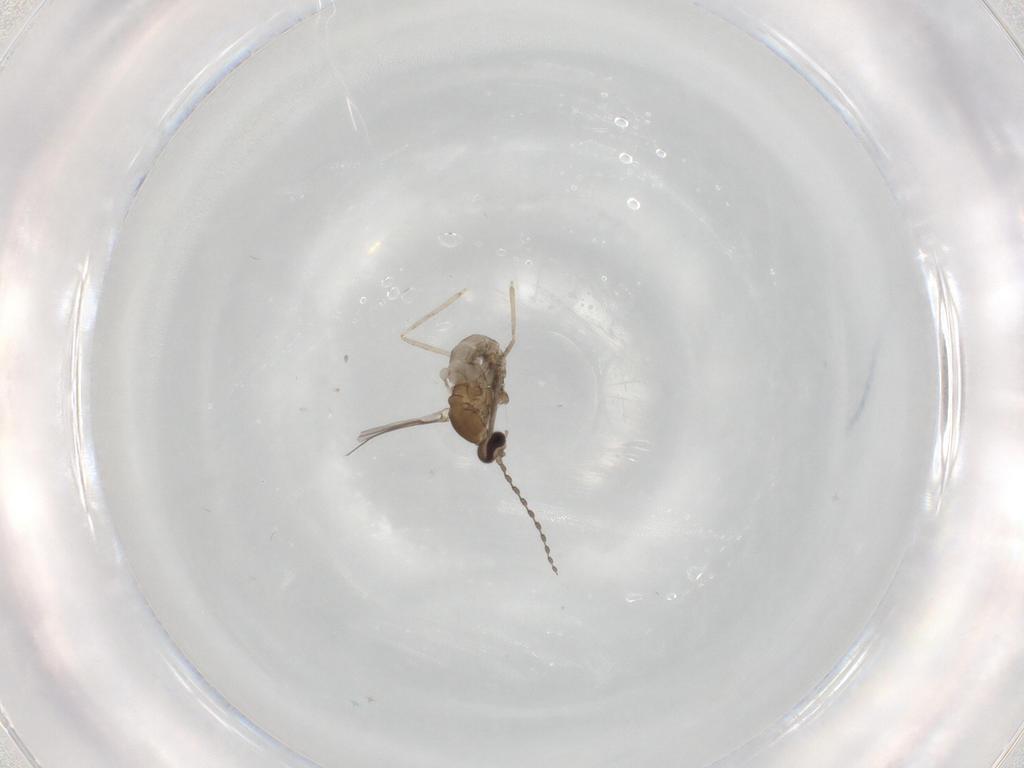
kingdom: Animalia
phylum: Arthropoda
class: Insecta
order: Diptera
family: Cecidomyiidae
